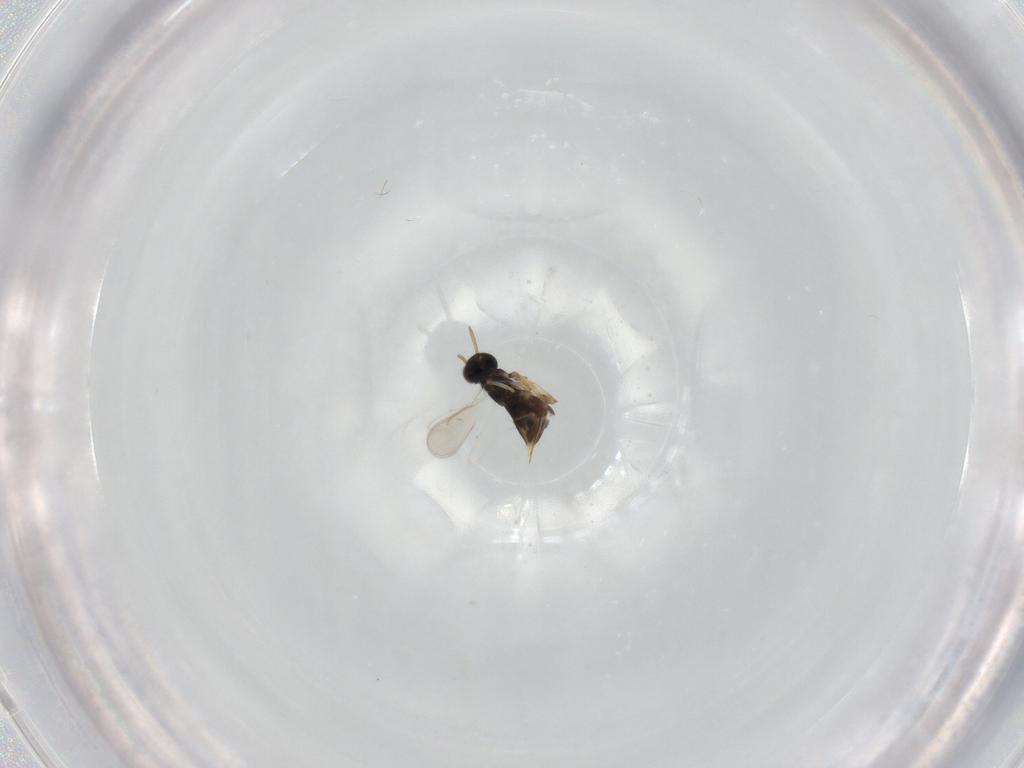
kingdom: Animalia
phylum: Arthropoda
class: Insecta
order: Hymenoptera
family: Aphelinidae
